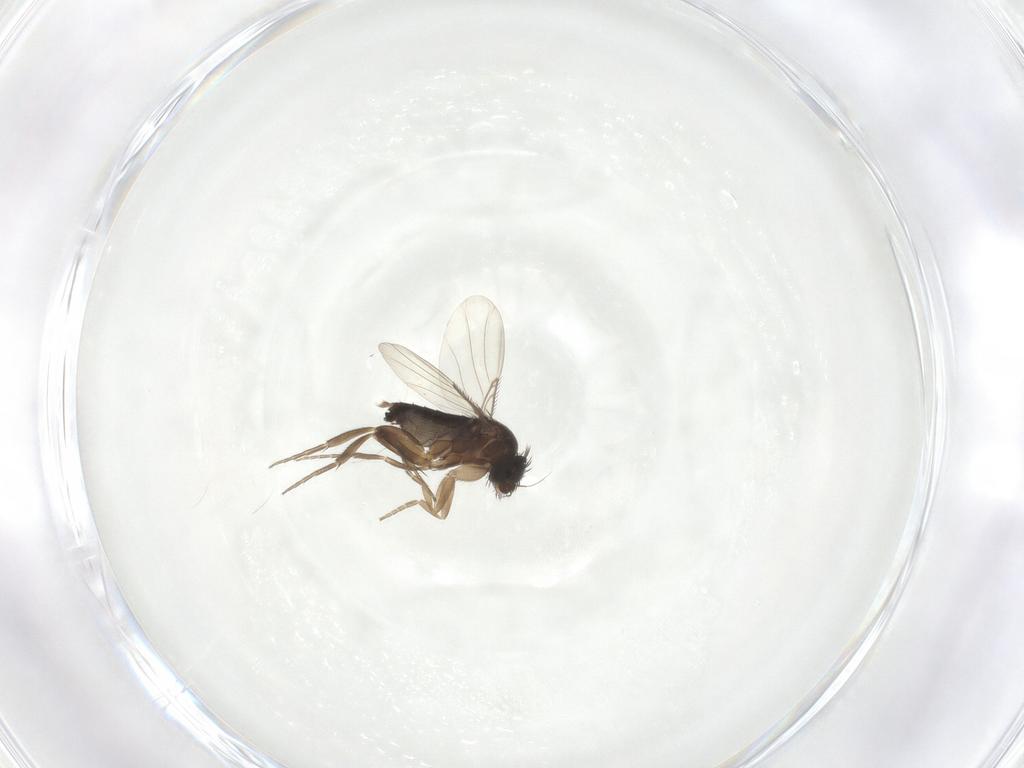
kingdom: Animalia
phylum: Arthropoda
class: Insecta
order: Diptera
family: Phoridae
